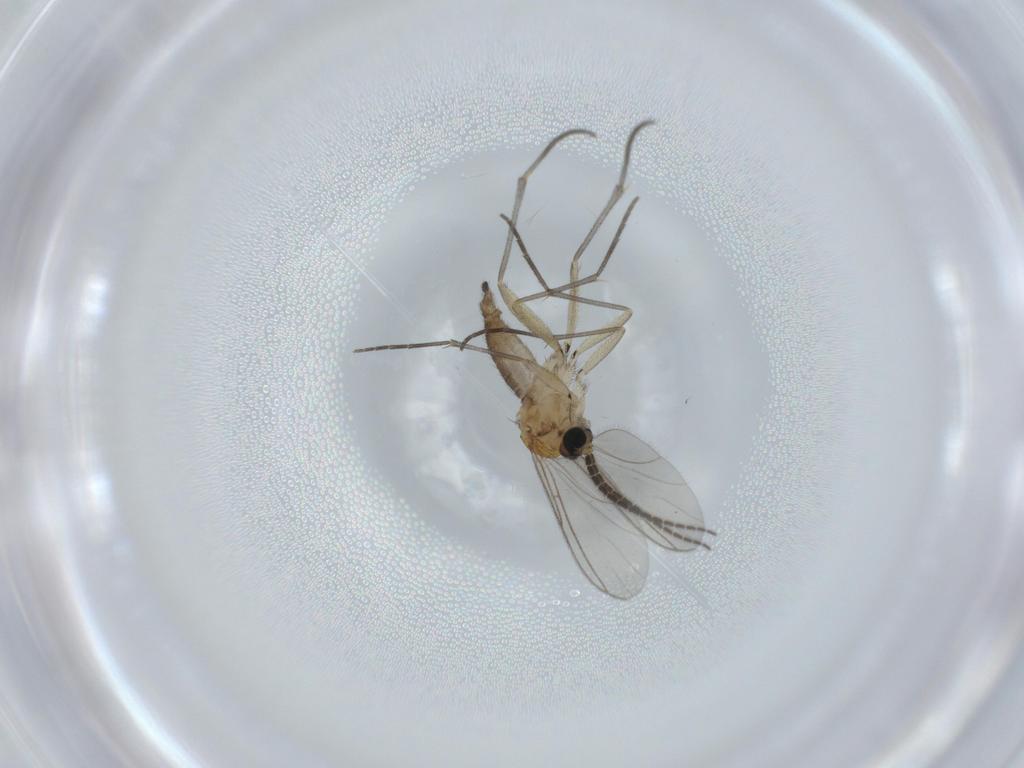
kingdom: Animalia
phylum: Arthropoda
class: Insecta
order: Diptera
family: Sciaridae
